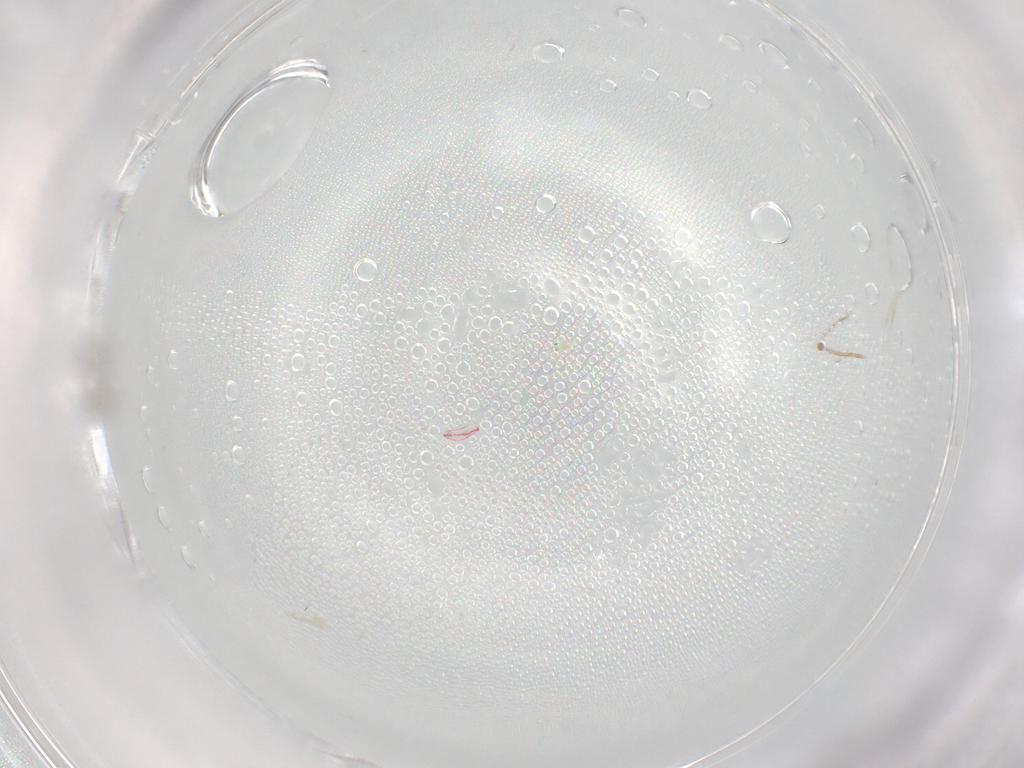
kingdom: Animalia
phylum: Arthropoda
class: Insecta
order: Hymenoptera
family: Aphelinidae
